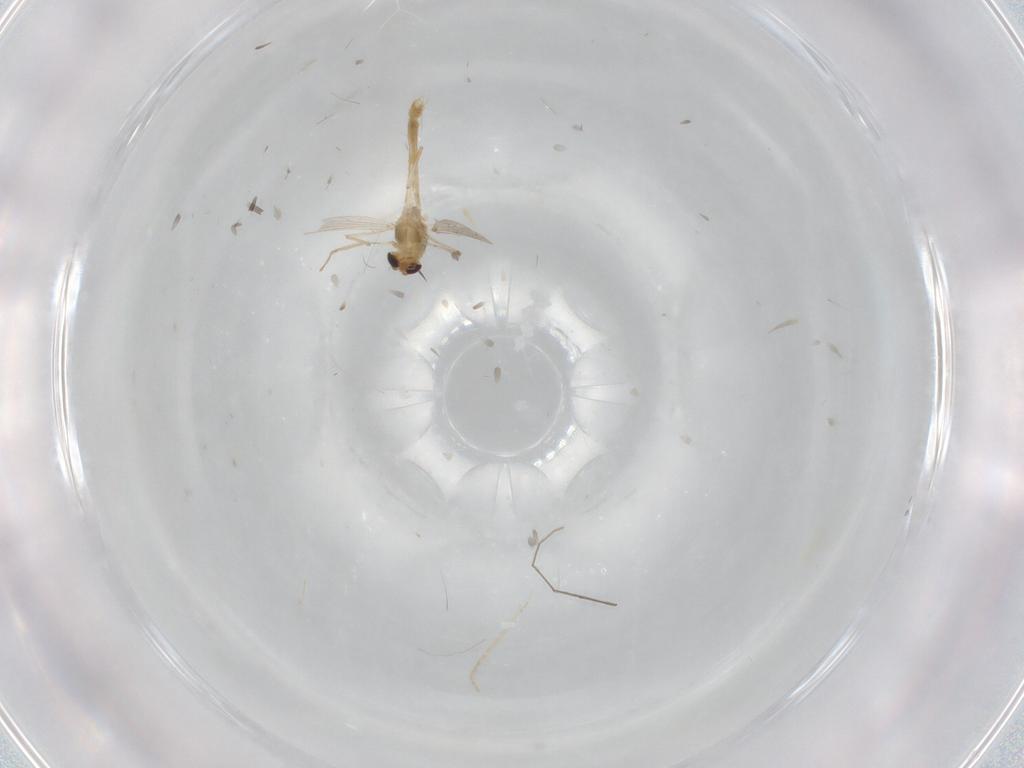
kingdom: Animalia
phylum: Arthropoda
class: Insecta
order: Diptera
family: Chironomidae
